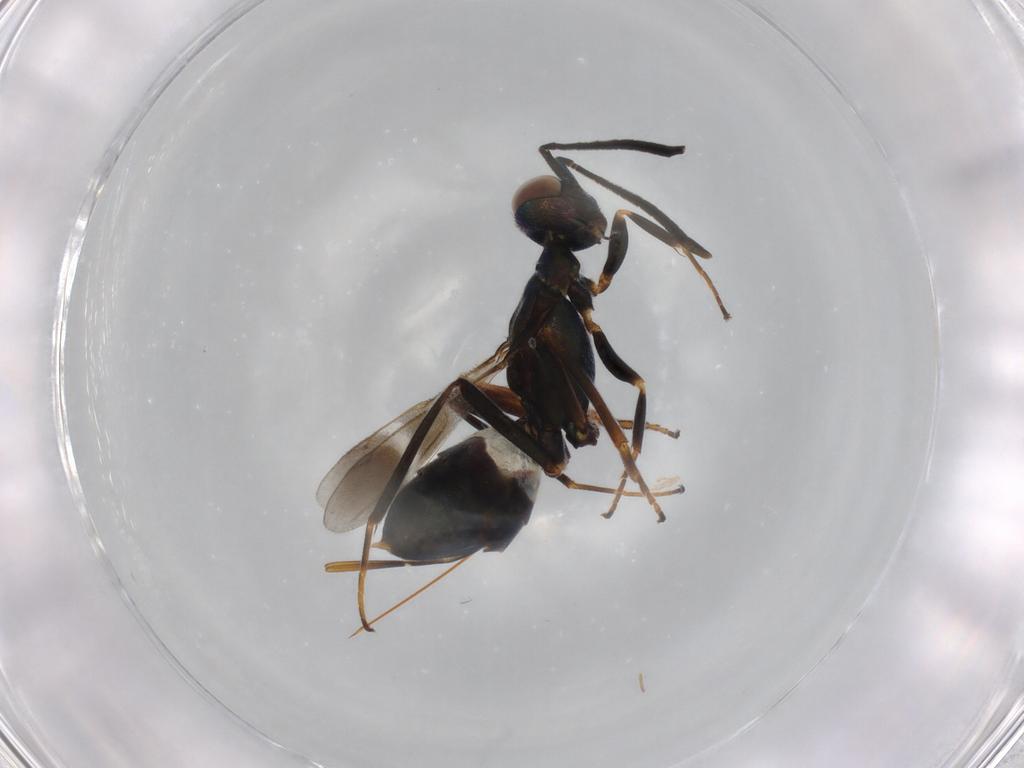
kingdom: Animalia
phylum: Arthropoda
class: Insecta
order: Hymenoptera
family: Eupelmidae
